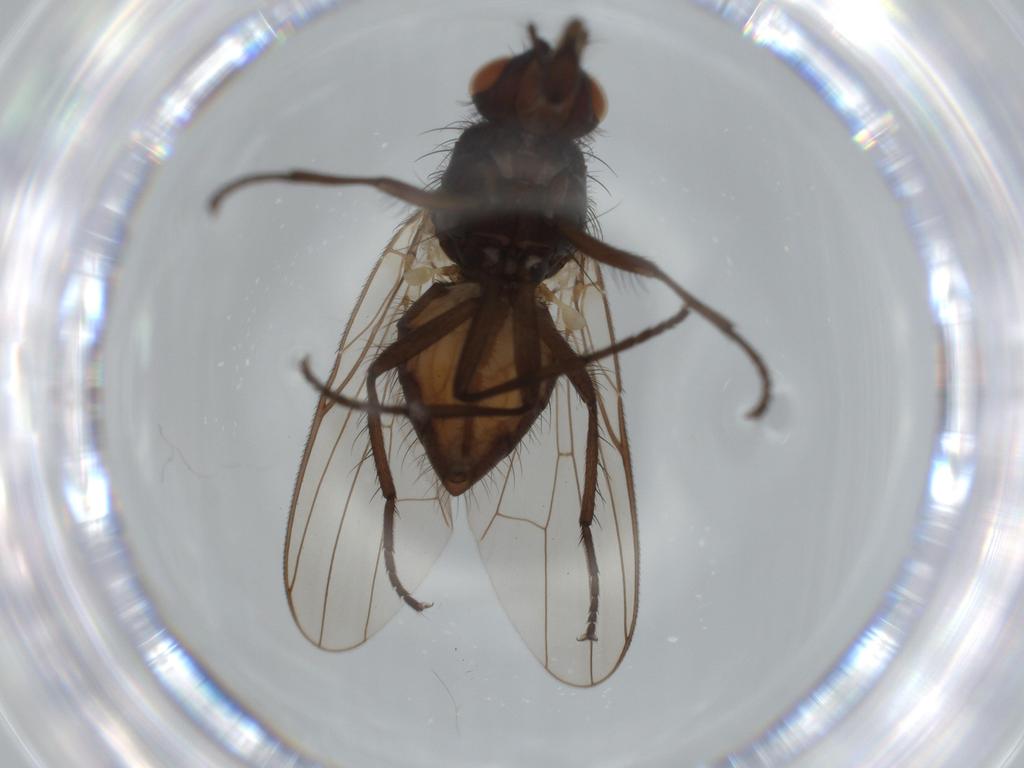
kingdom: Animalia
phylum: Arthropoda
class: Insecta
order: Diptera
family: Anthomyiidae
